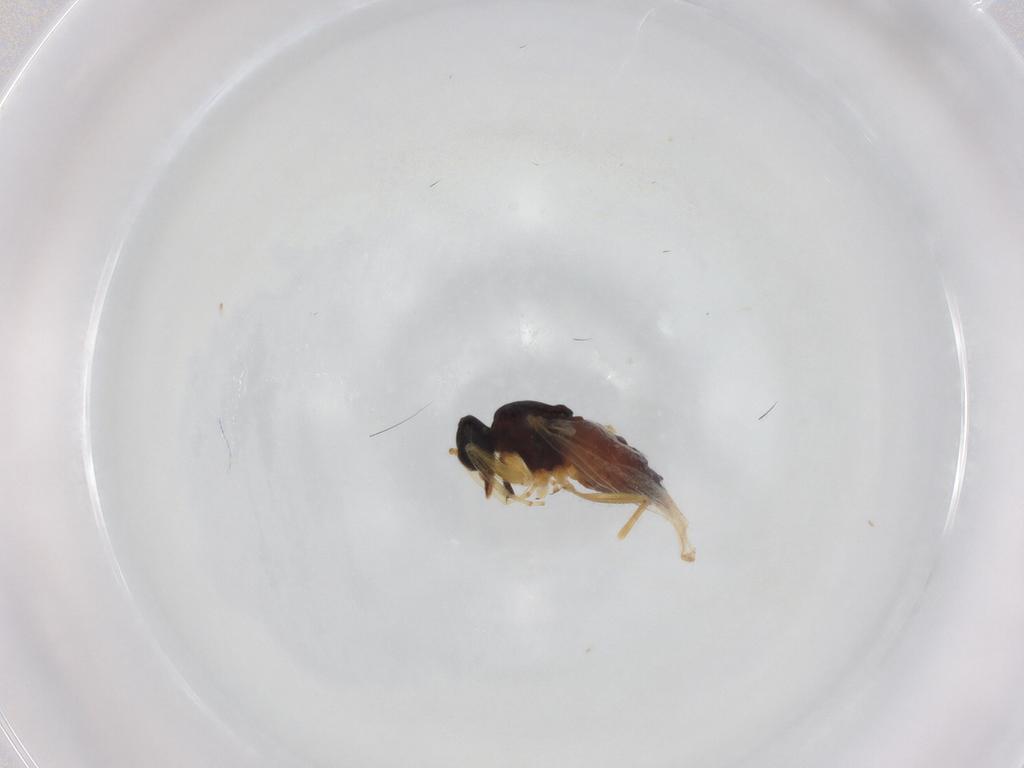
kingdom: Animalia
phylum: Arthropoda
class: Insecta
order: Diptera
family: Hybotidae
